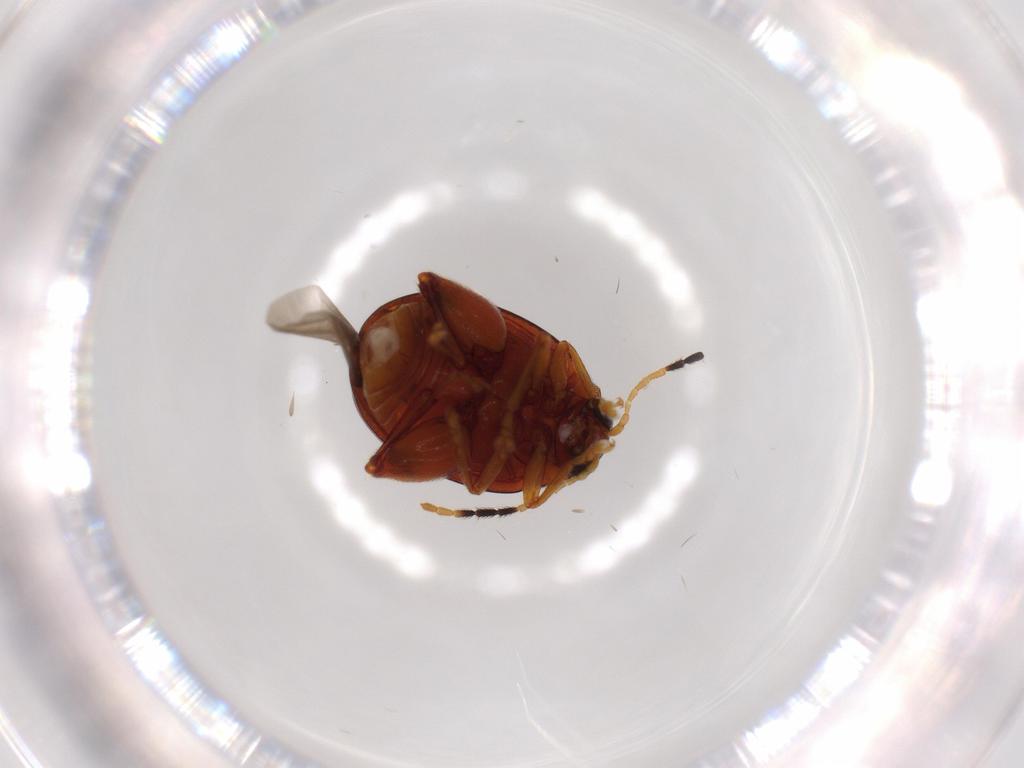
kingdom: Animalia
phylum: Arthropoda
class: Insecta
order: Coleoptera
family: Chrysomelidae
